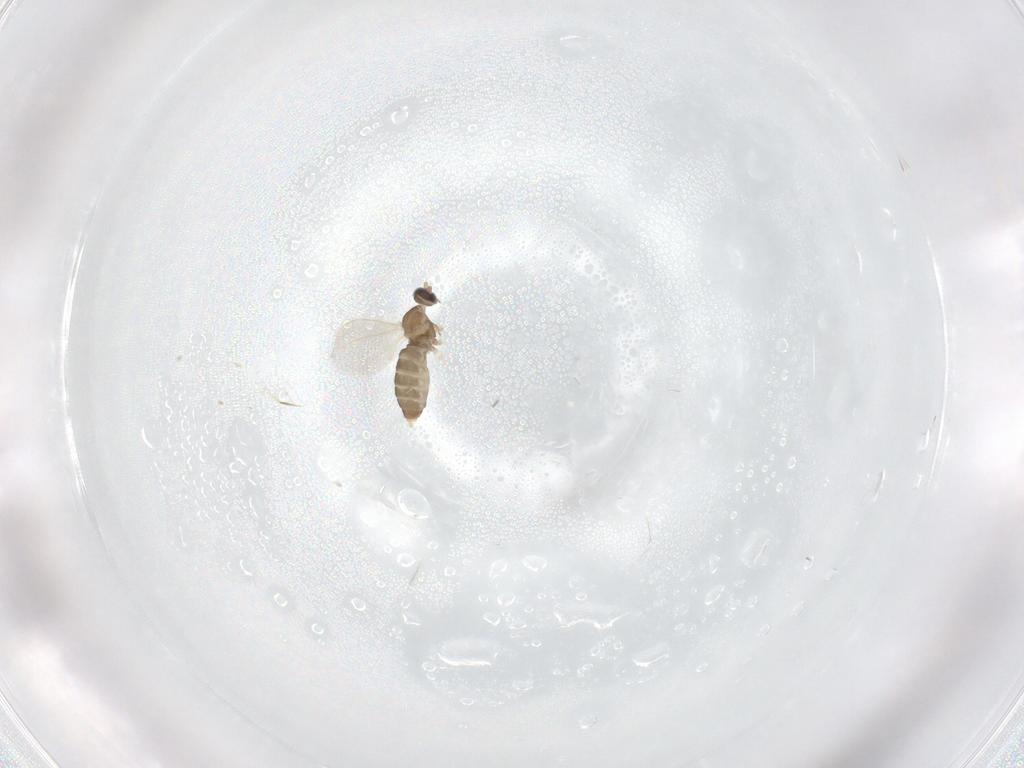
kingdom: Animalia
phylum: Arthropoda
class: Insecta
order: Diptera
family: Cecidomyiidae
